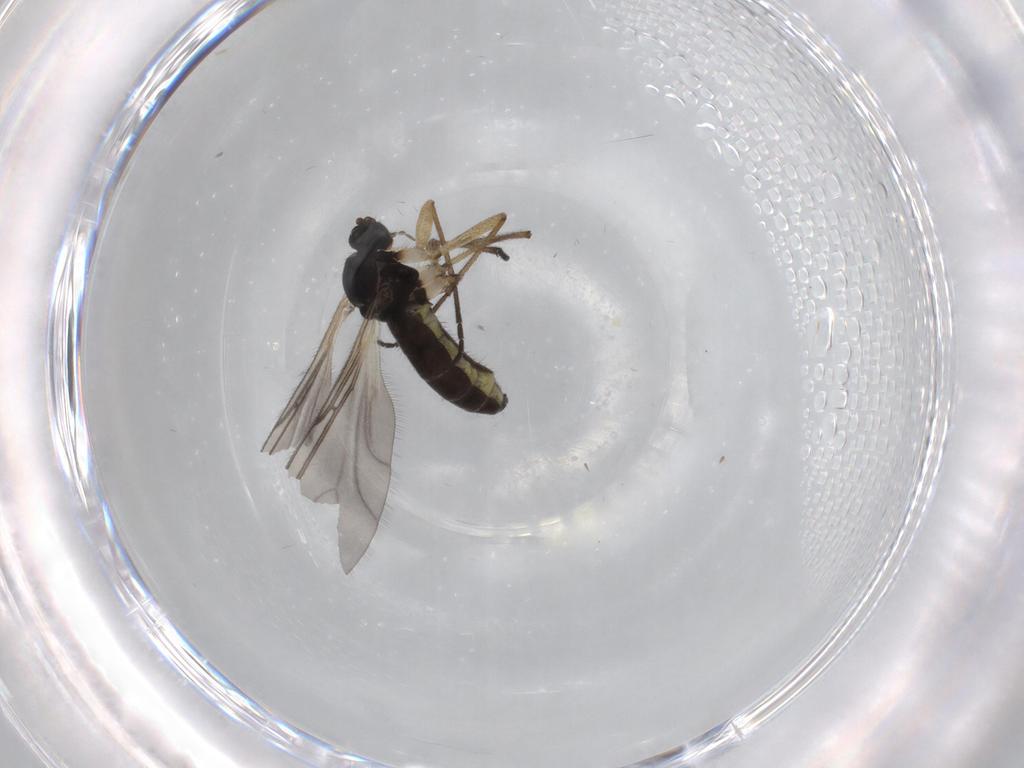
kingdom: Animalia
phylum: Arthropoda
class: Insecta
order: Diptera
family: Sciaridae
